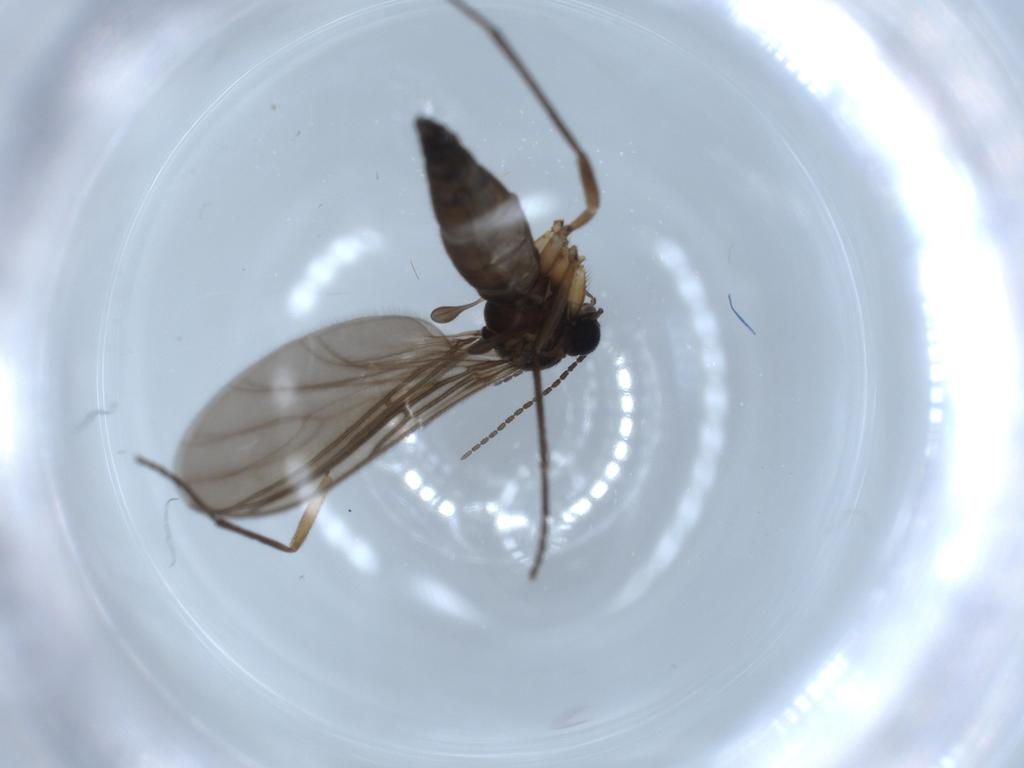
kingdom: Animalia
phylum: Arthropoda
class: Insecta
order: Diptera
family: Sciaridae
